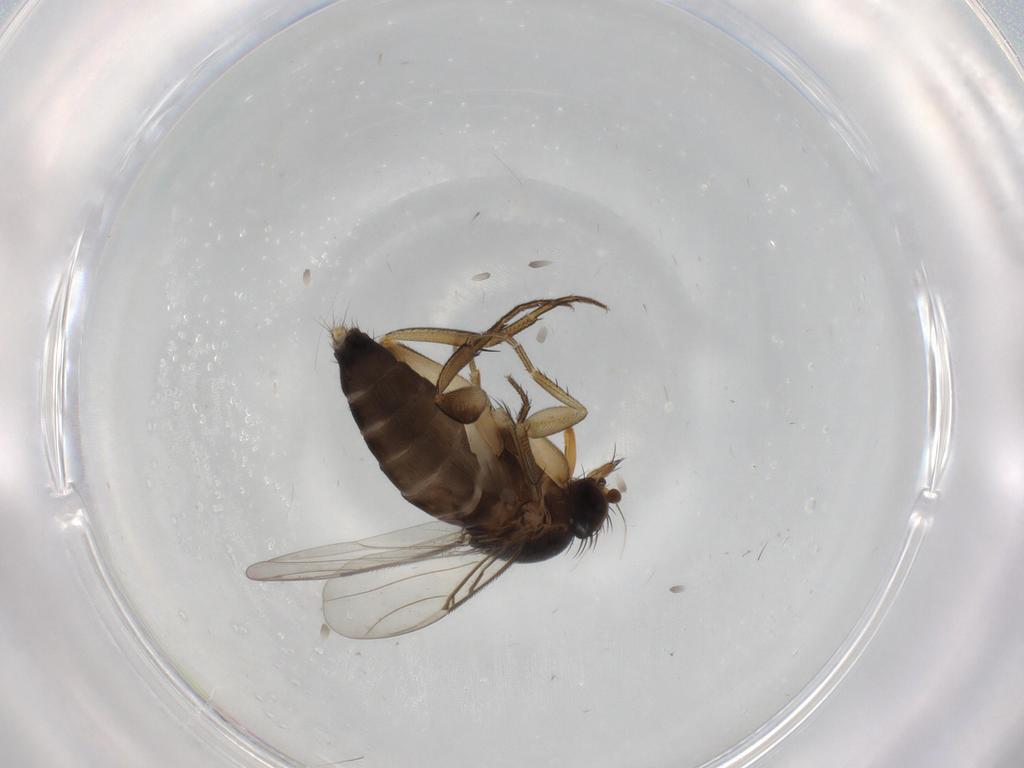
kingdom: Animalia
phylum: Arthropoda
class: Insecta
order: Diptera
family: Phoridae
